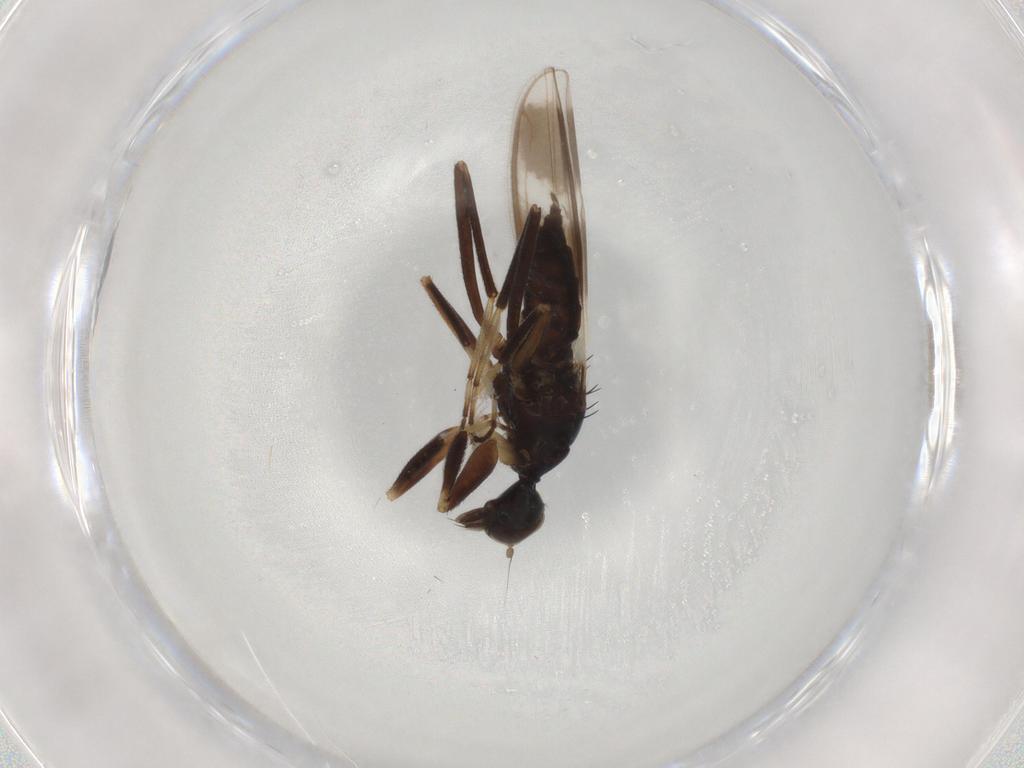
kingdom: Animalia
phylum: Arthropoda
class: Insecta
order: Diptera
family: Hybotidae
